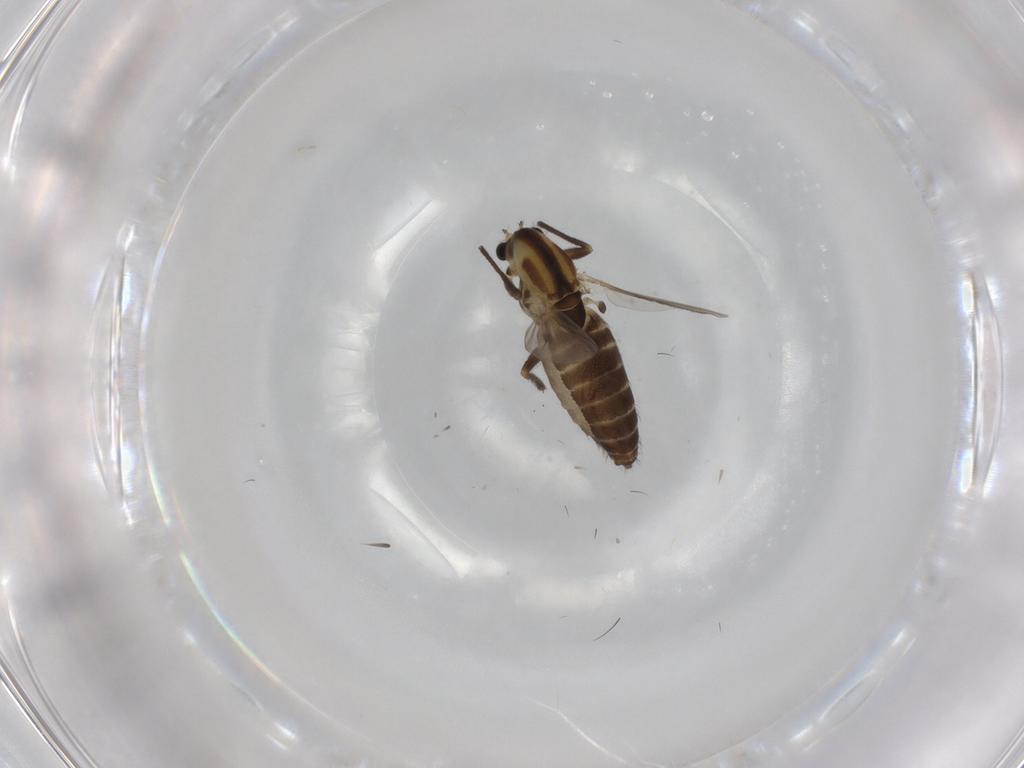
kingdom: Animalia
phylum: Arthropoda
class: Insecta
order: Diptera
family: Chironomidae
